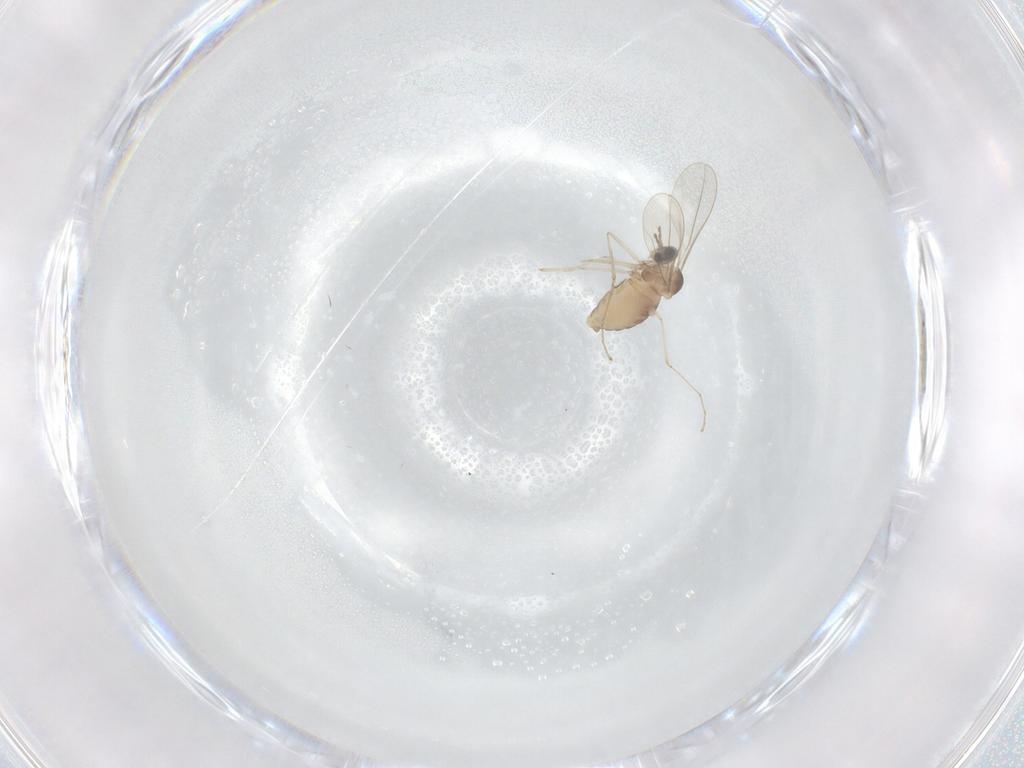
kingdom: Animalia
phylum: Arthropoda
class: Insecta
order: Diptera
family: Cecidomyiidae
